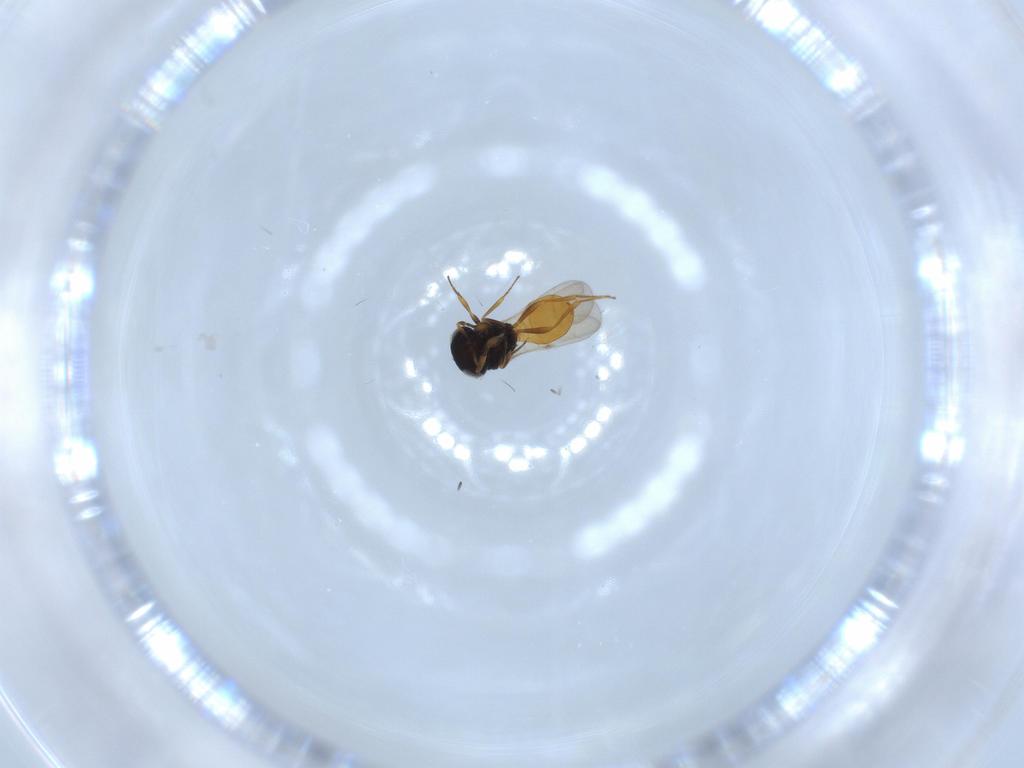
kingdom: Animalia
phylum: Arthropoda
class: Insecta
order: Hymenoptera
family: Scelionidae
